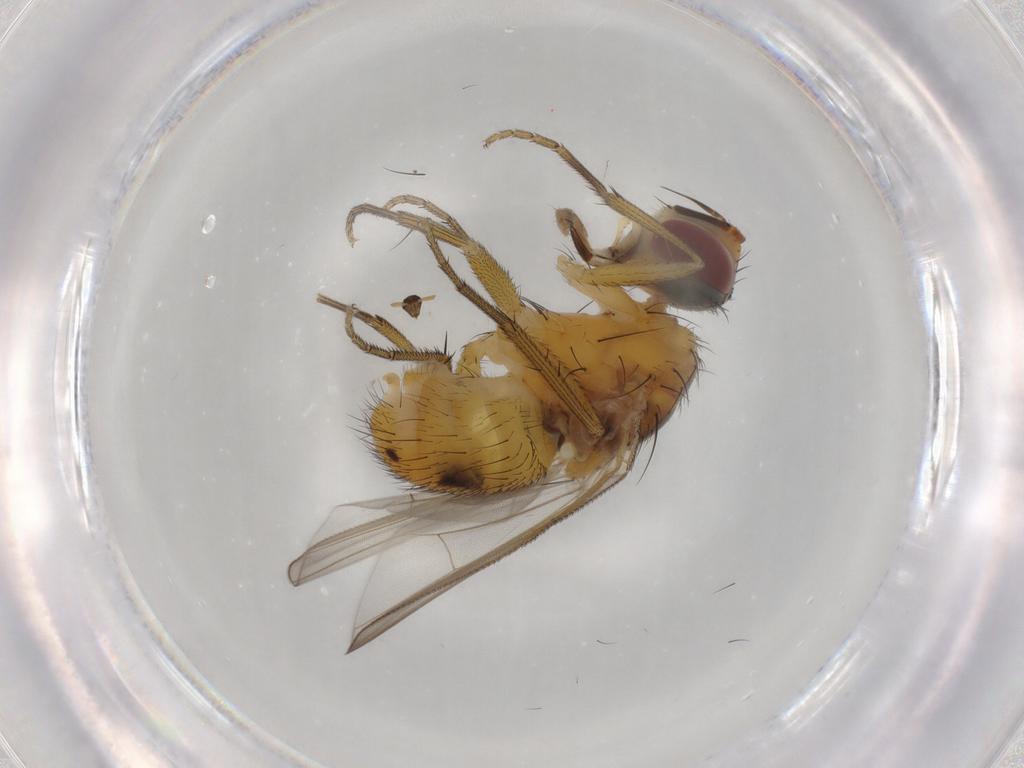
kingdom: Animalia
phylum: Arthropoda
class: Insecta
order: Diptera
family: Muscidae
